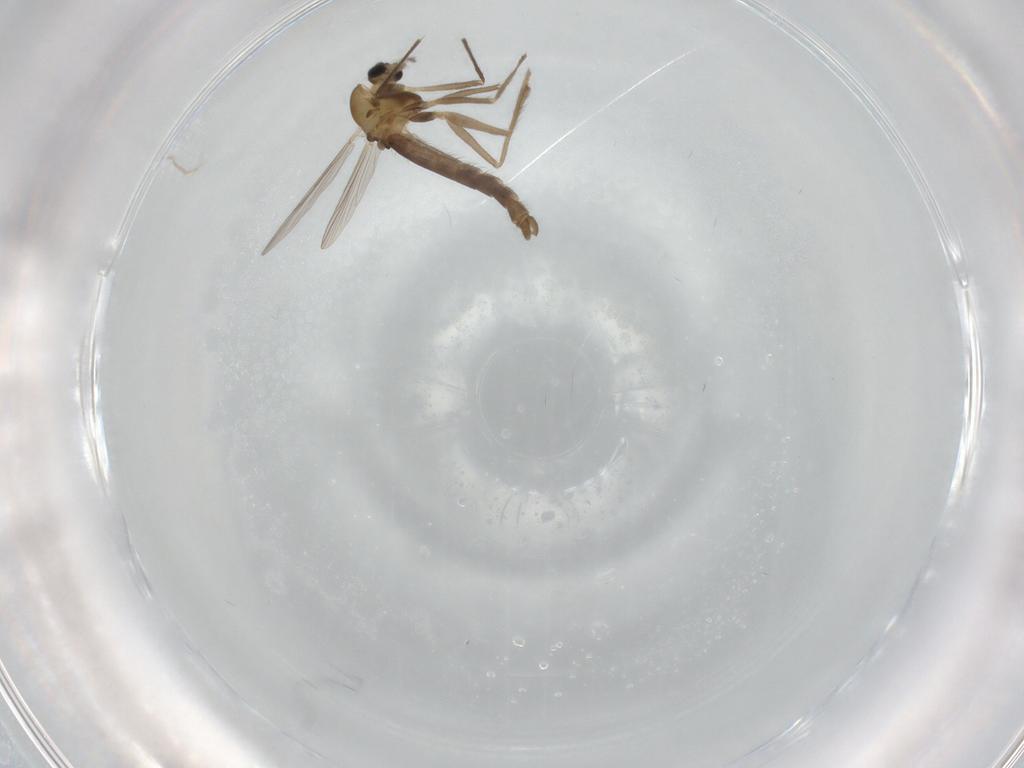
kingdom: Animalia
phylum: Arthropoda
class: Insecta
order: Diptera
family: Chironomidae
